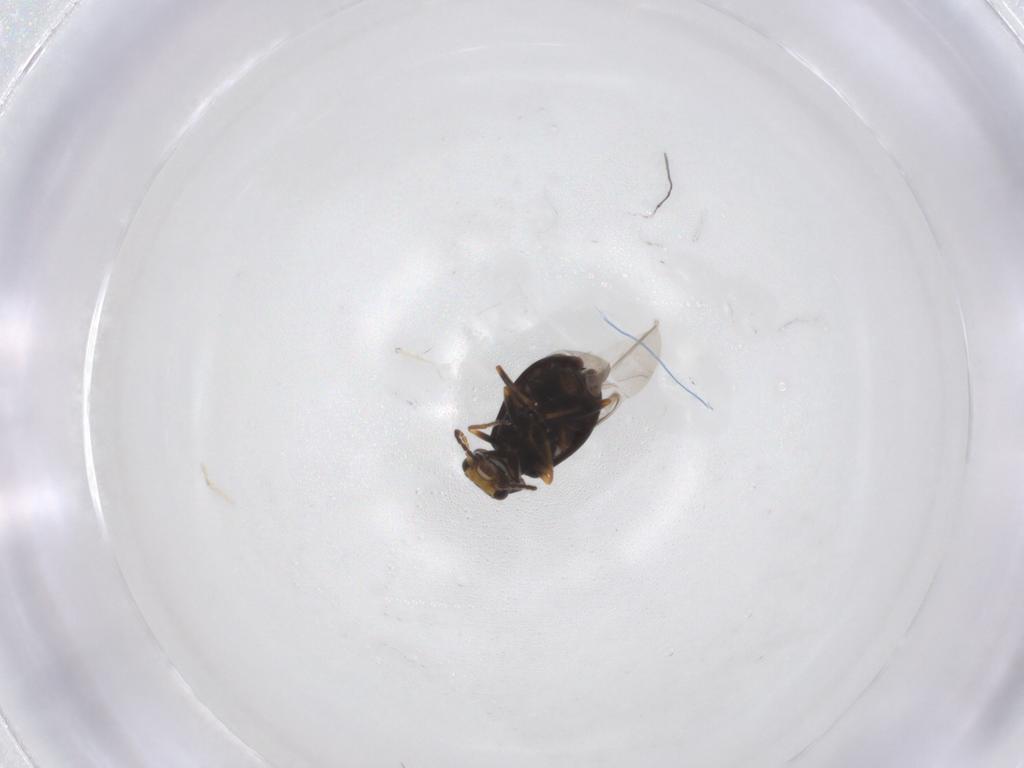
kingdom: Animalia
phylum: Arthropoda
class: Insecta
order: Coleoptera
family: Melyridae
